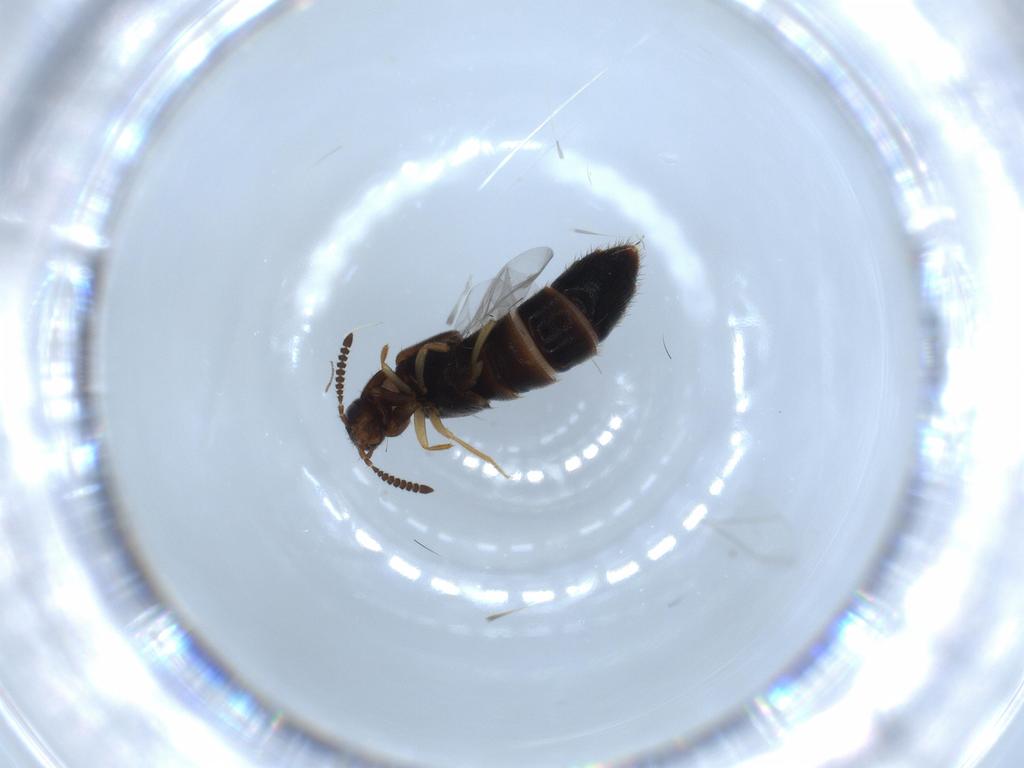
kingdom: Animalia
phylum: Arthropoda
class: Insecta
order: Coleoptera
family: Staphylinidae
